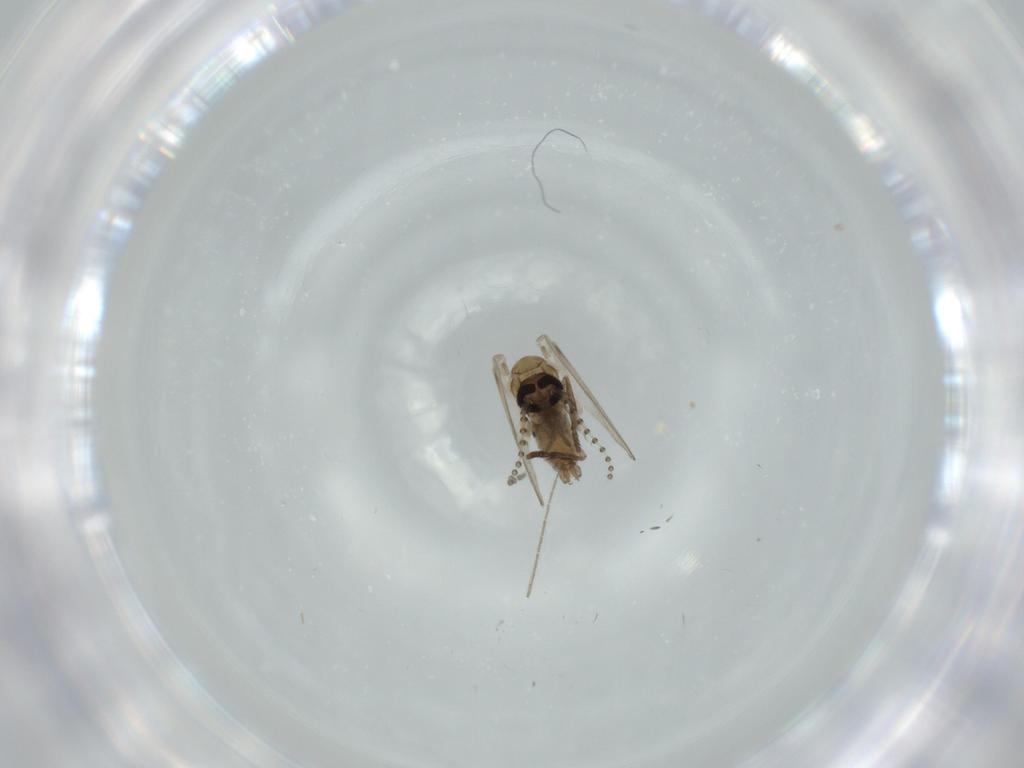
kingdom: Animalia
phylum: Arthropoda
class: Insecta
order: Diptera
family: Psychodidae
